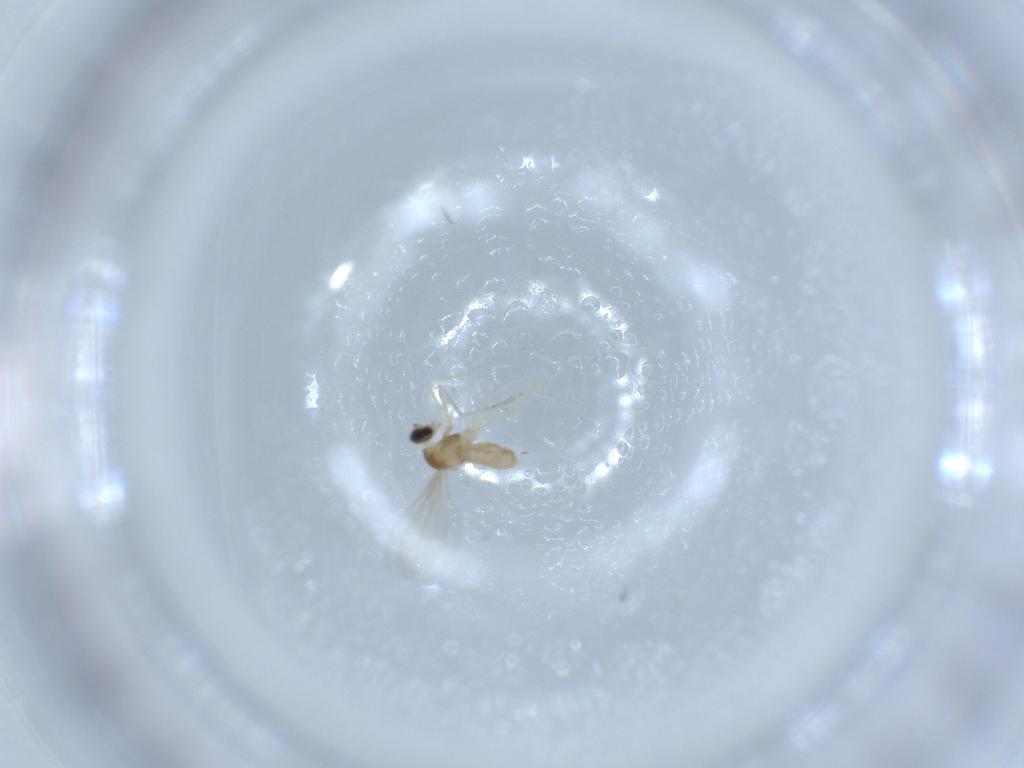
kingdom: Animalia
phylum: Arthropoda
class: Insecta
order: Diptera
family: Cecidomyiidae
